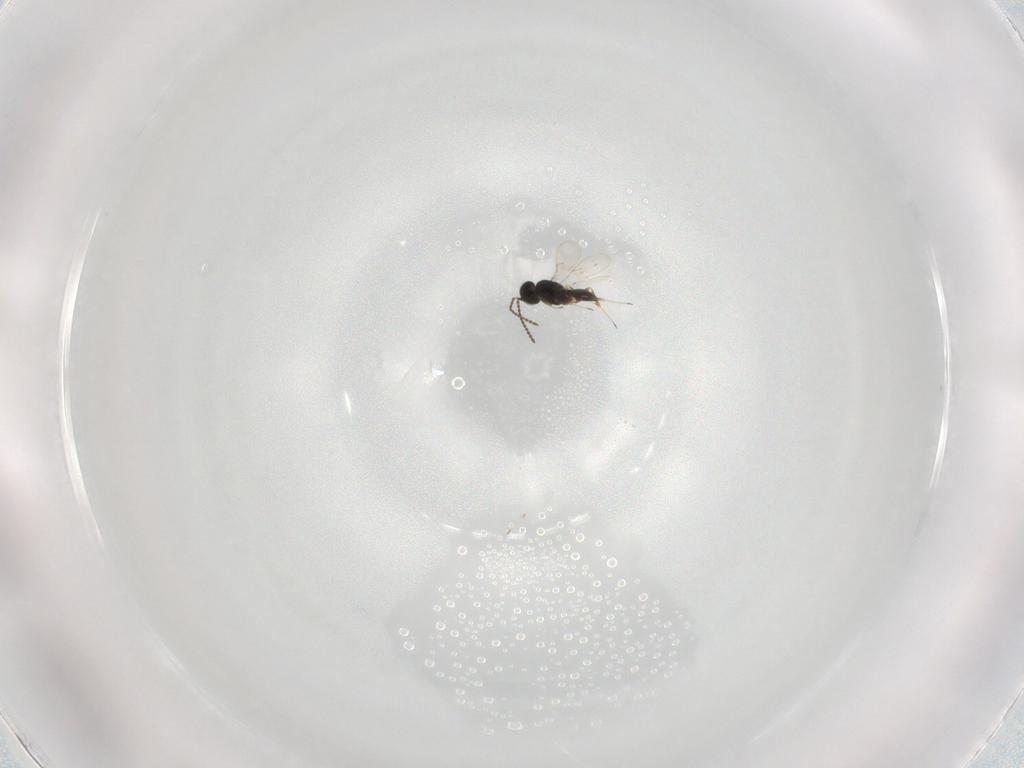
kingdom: Animalia
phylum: Arthropoda
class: Insecta
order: Hymenoptera
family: Scelionidae
